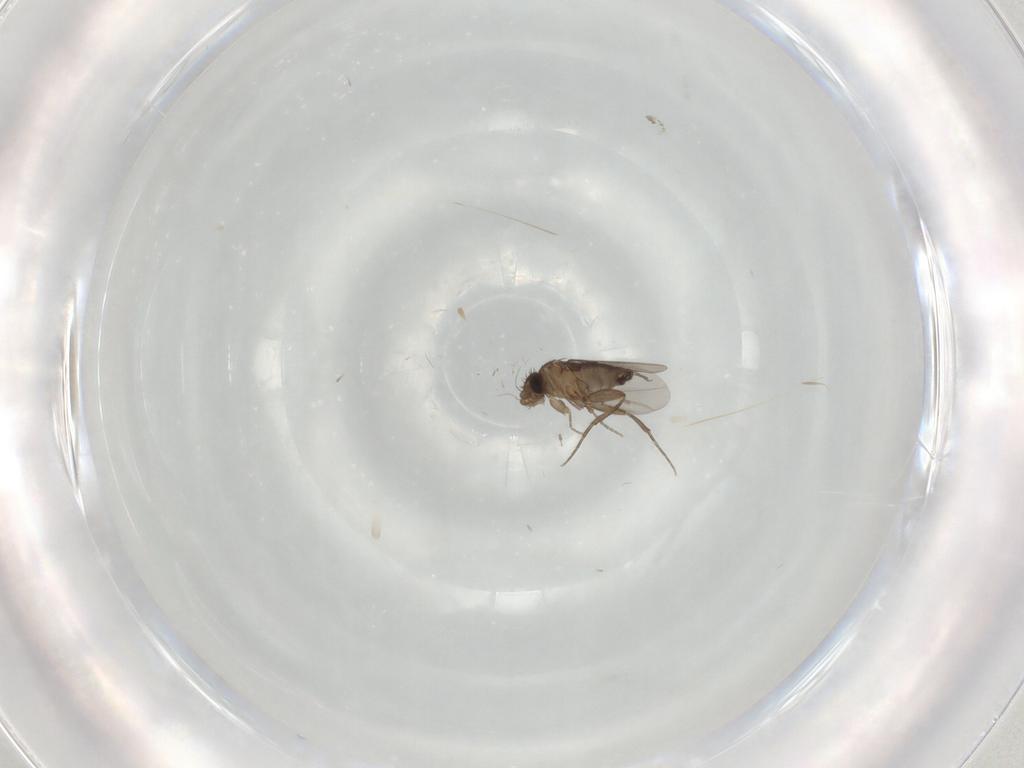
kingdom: Animalia
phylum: Arthropoda
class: Insecta
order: Diptera
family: Phoridae
